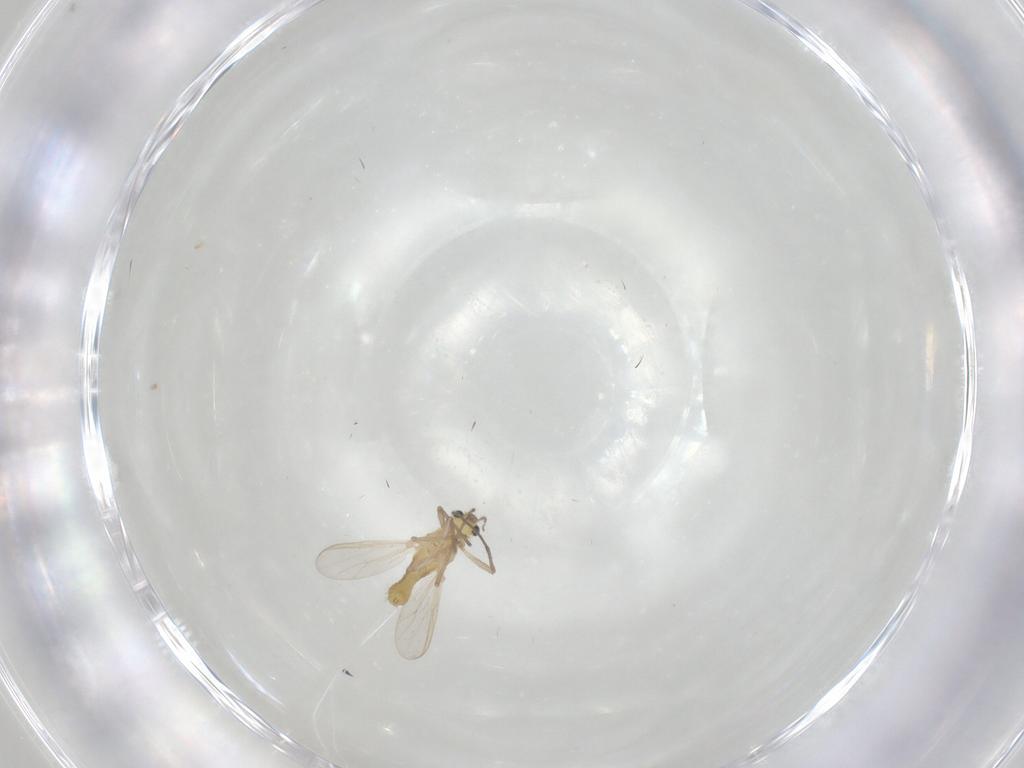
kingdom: Animalia
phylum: Arthropoda
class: Insecta
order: Diptera
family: Chironomidae
